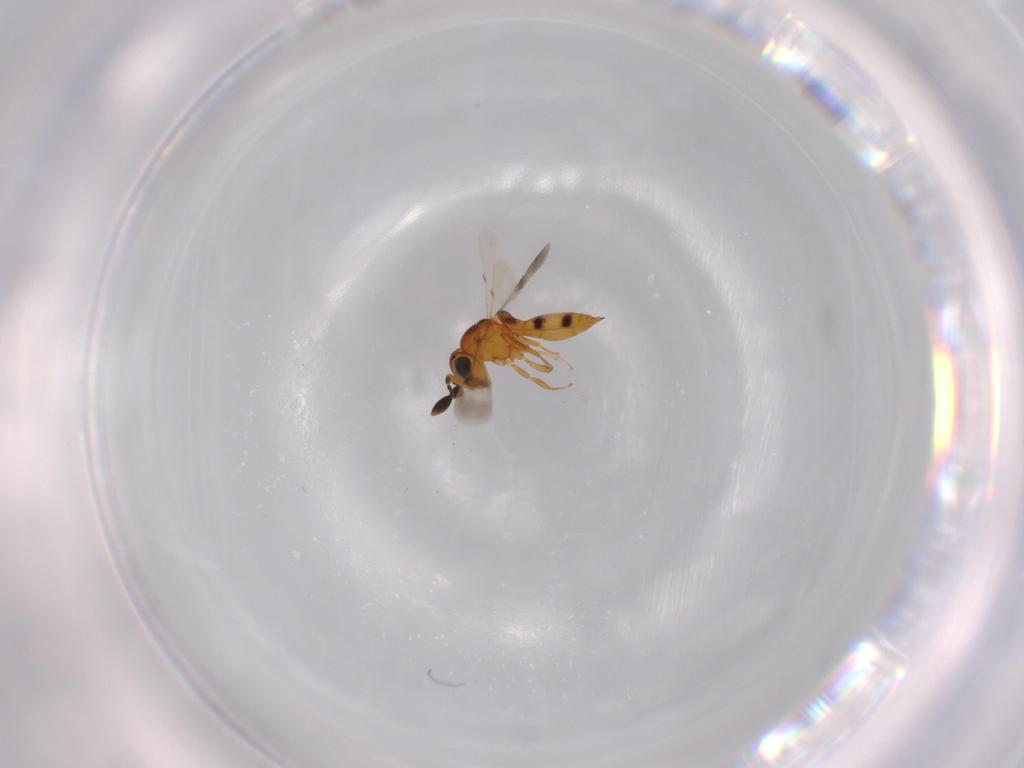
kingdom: Animalia
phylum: Arthropoda
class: Insecta
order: Hymenoptera
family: Scelionidae
